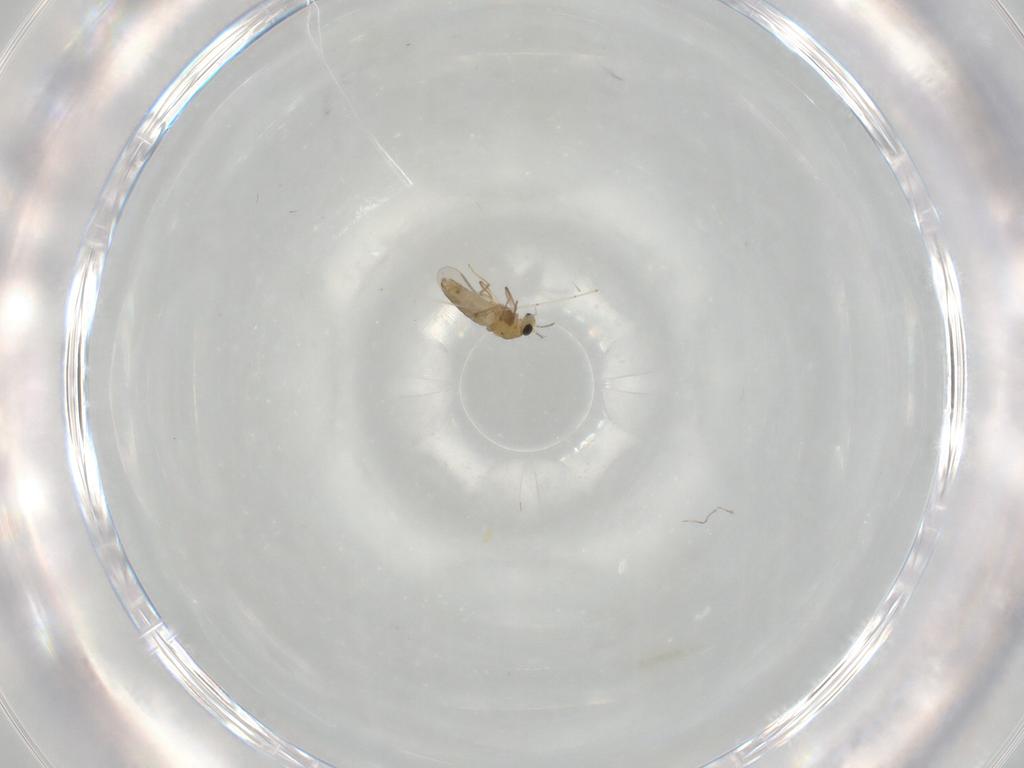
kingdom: Animalia
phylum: Arthropoda
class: Insecta
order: Diptera
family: Chironomidae
